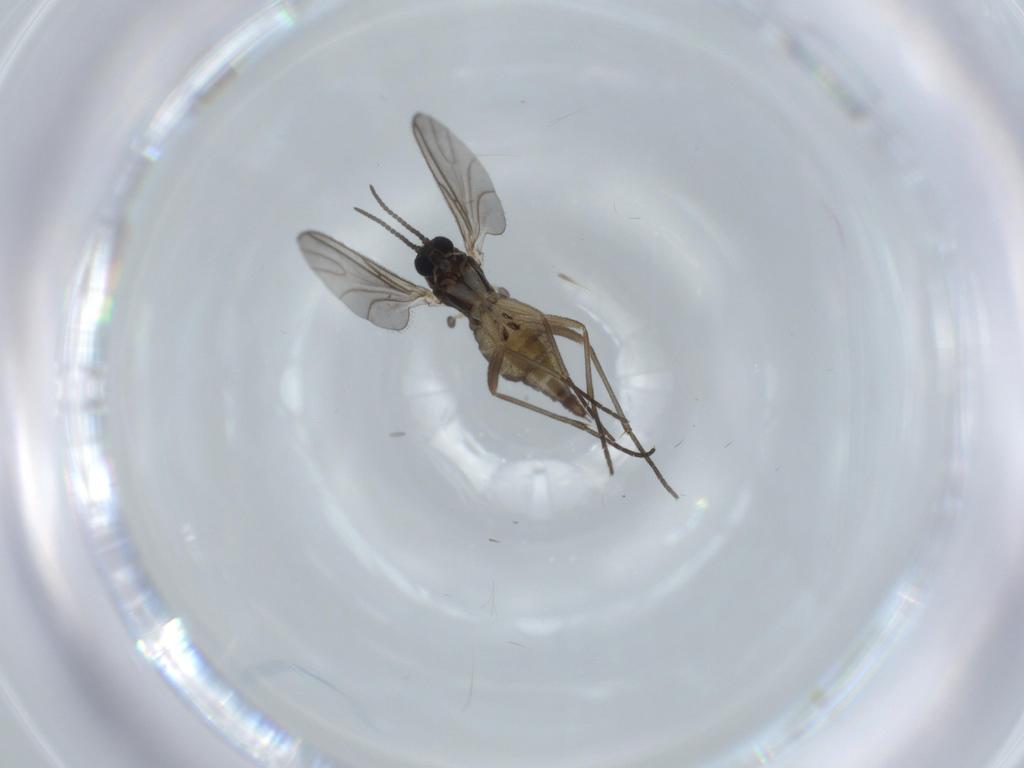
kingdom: Animalia
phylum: Arthropoda
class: Insecta
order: Diptera
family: Sciaridae
